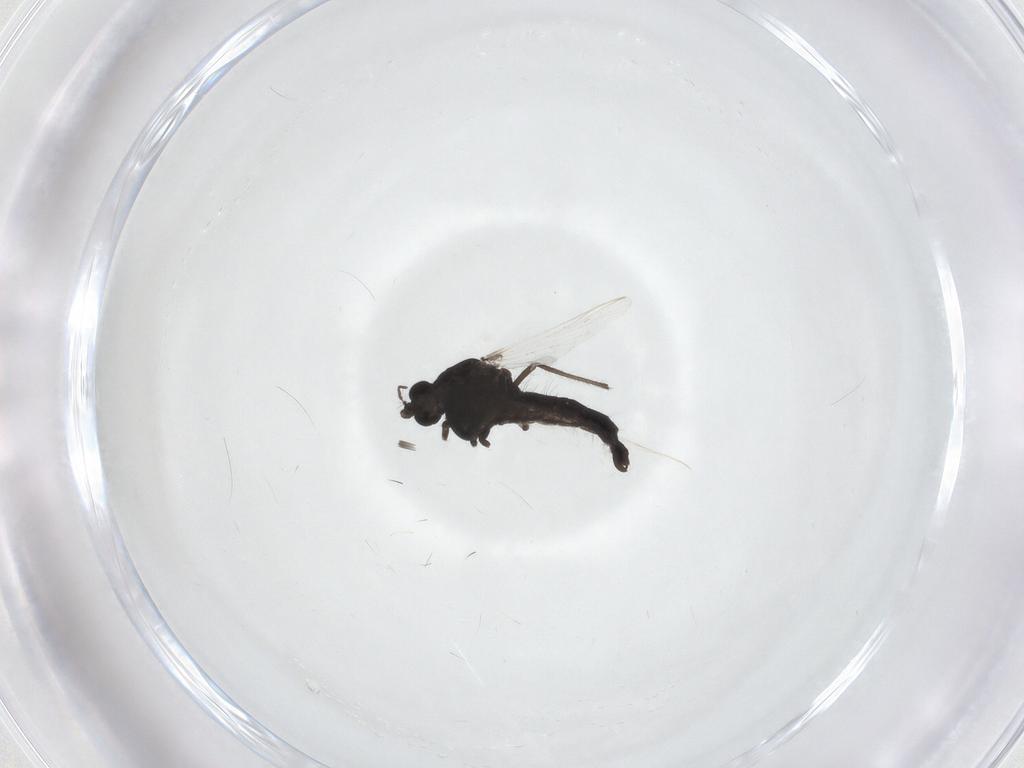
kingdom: Animalia
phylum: Arthropoda
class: Insecta
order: Diptera
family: Chironomidae
